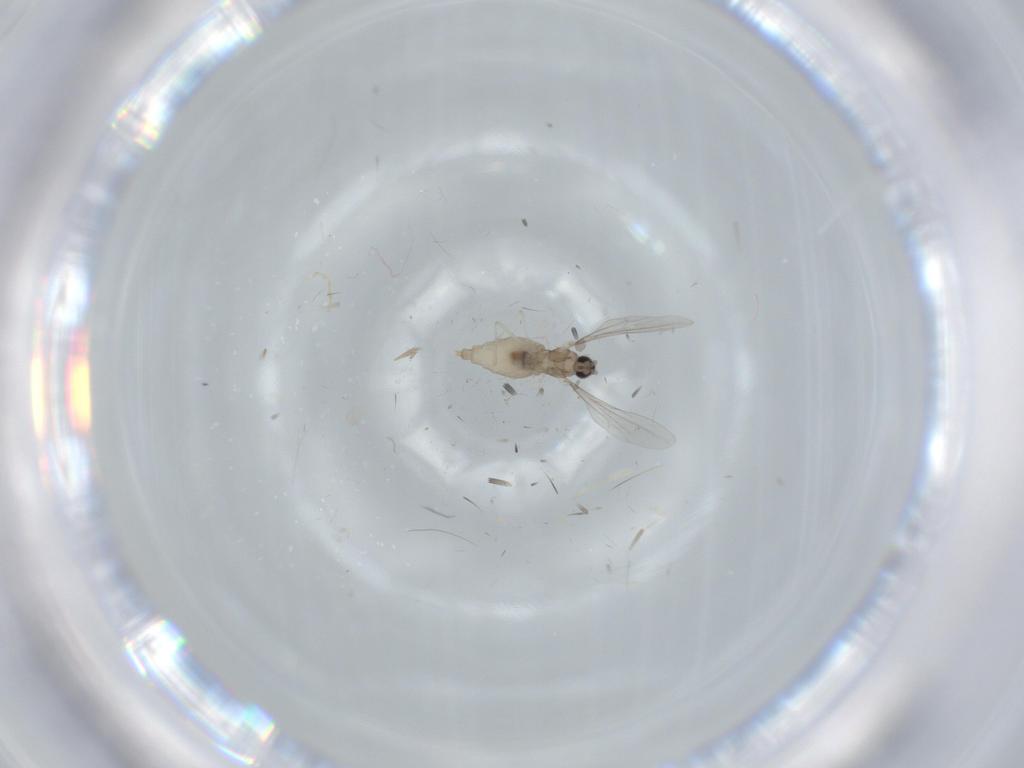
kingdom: Animalia
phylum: Arthropoda
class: Insecta
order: Diptera
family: Cecidomyiidae
